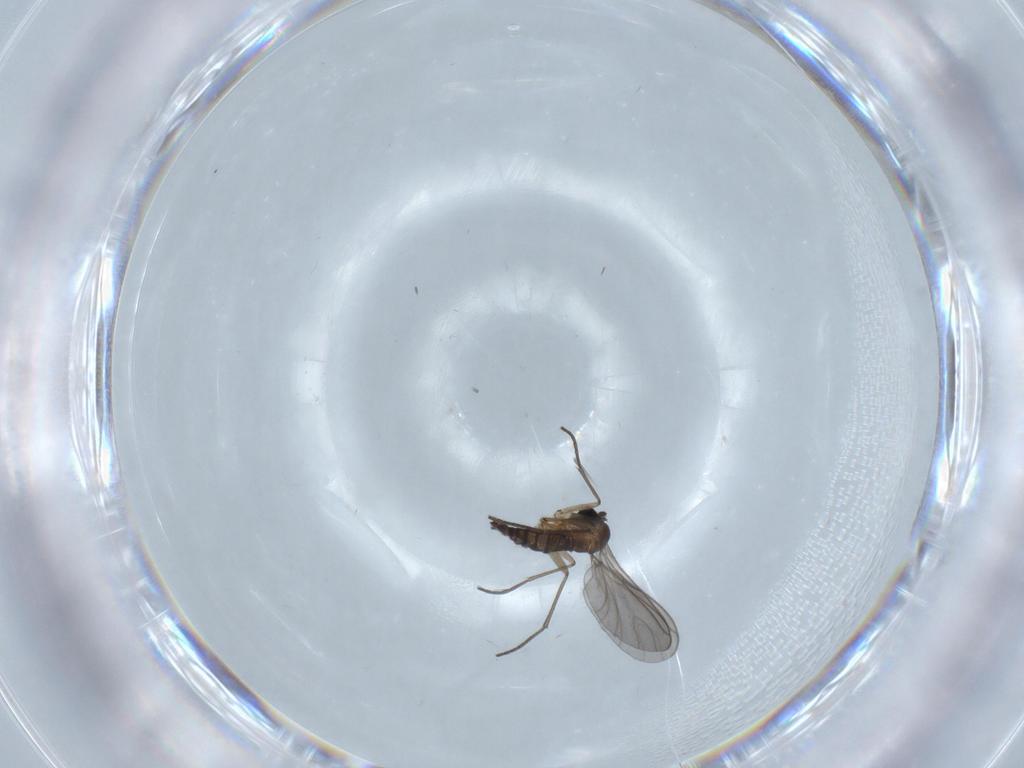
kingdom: Animalia
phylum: Arthropoda
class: Insecta
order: Diptera
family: Sciaridae
